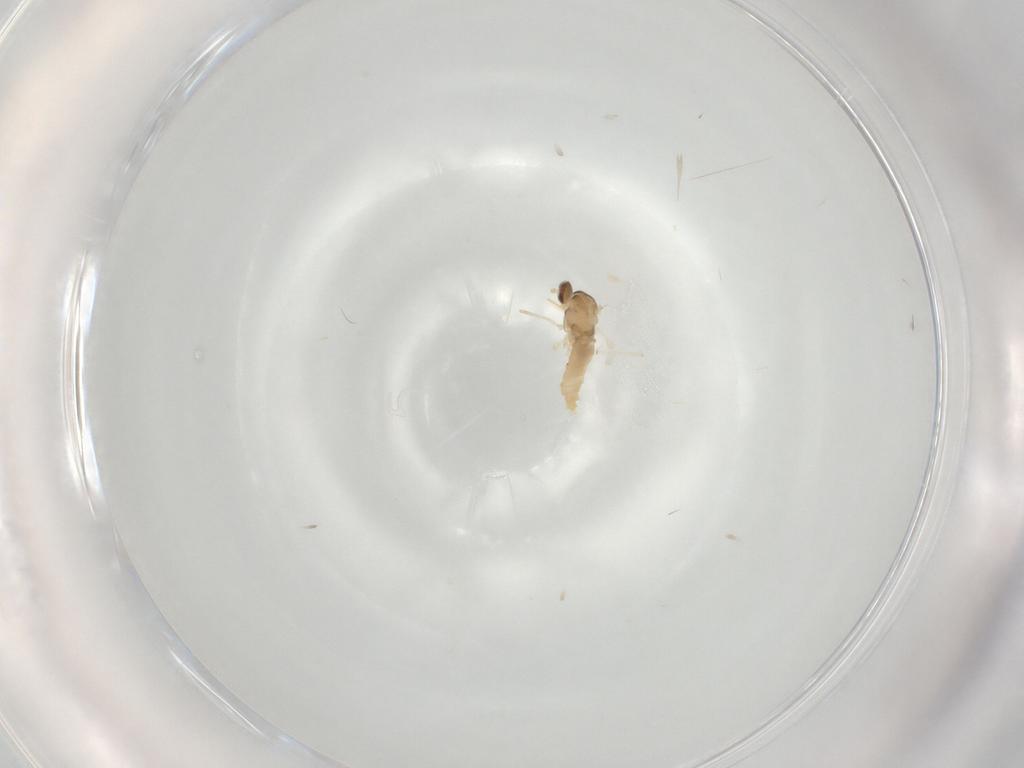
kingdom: Animalia
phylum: Arthropoda
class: Insecta
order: Diptera
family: Cecidomyiidae
